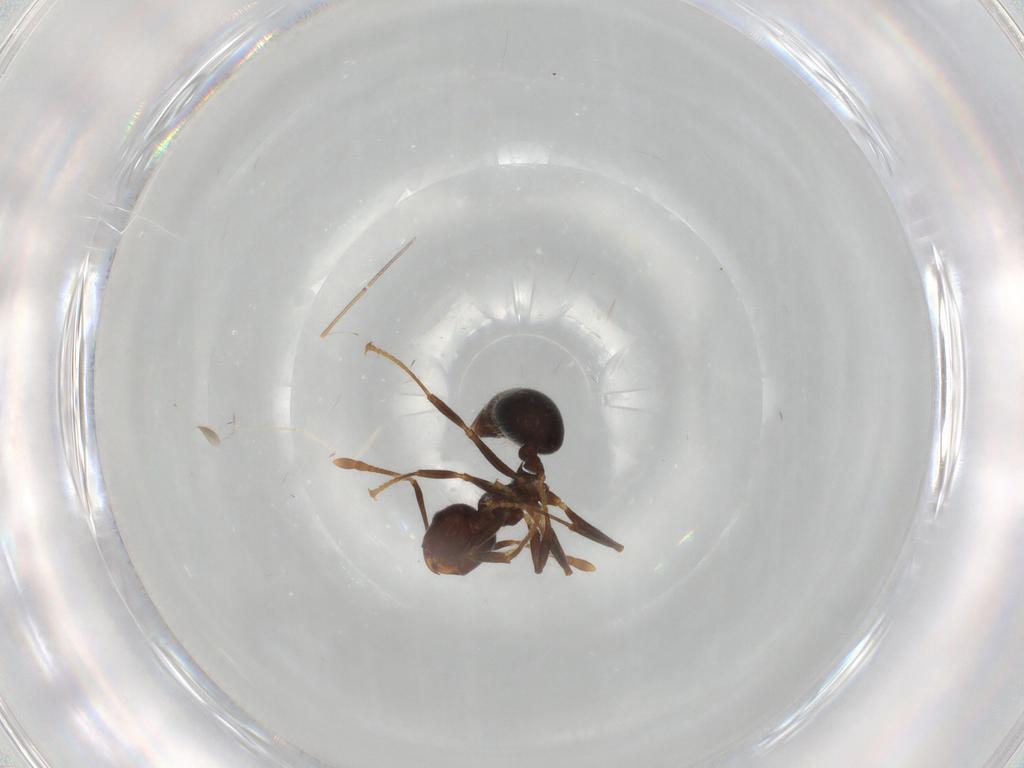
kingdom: Animalia
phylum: Arthropoda
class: Insecta
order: Hymenoptera
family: Formicidae
